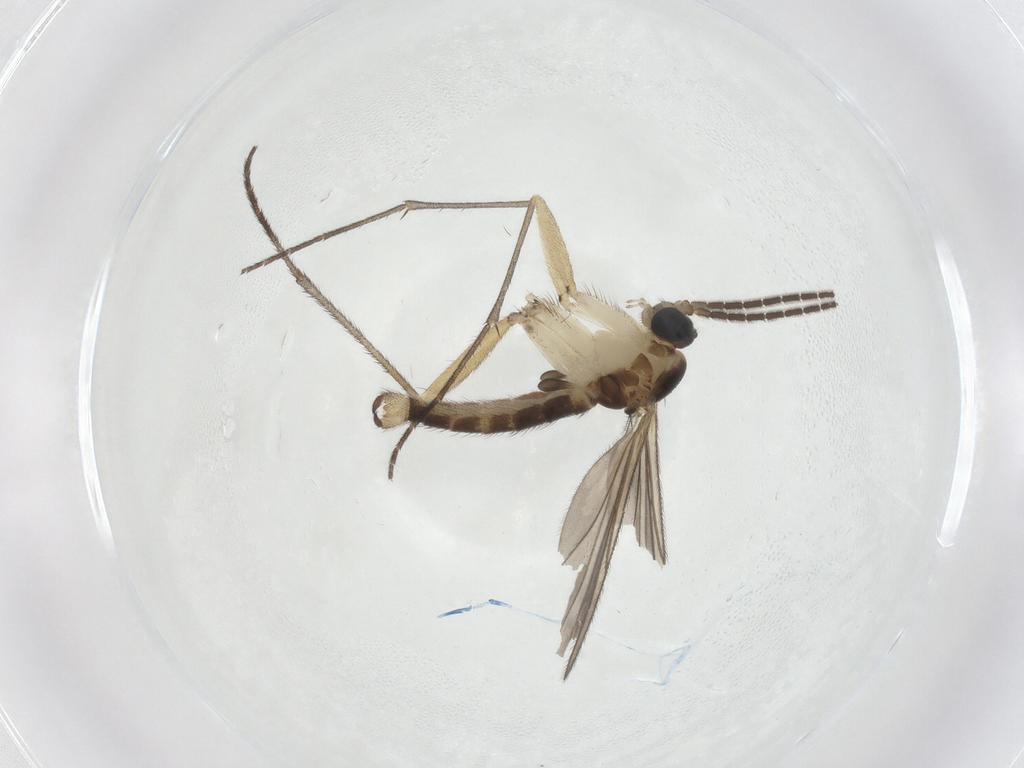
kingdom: Animalia
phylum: Arthropoda
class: Insecta
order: Diptera
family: Sciaridae
